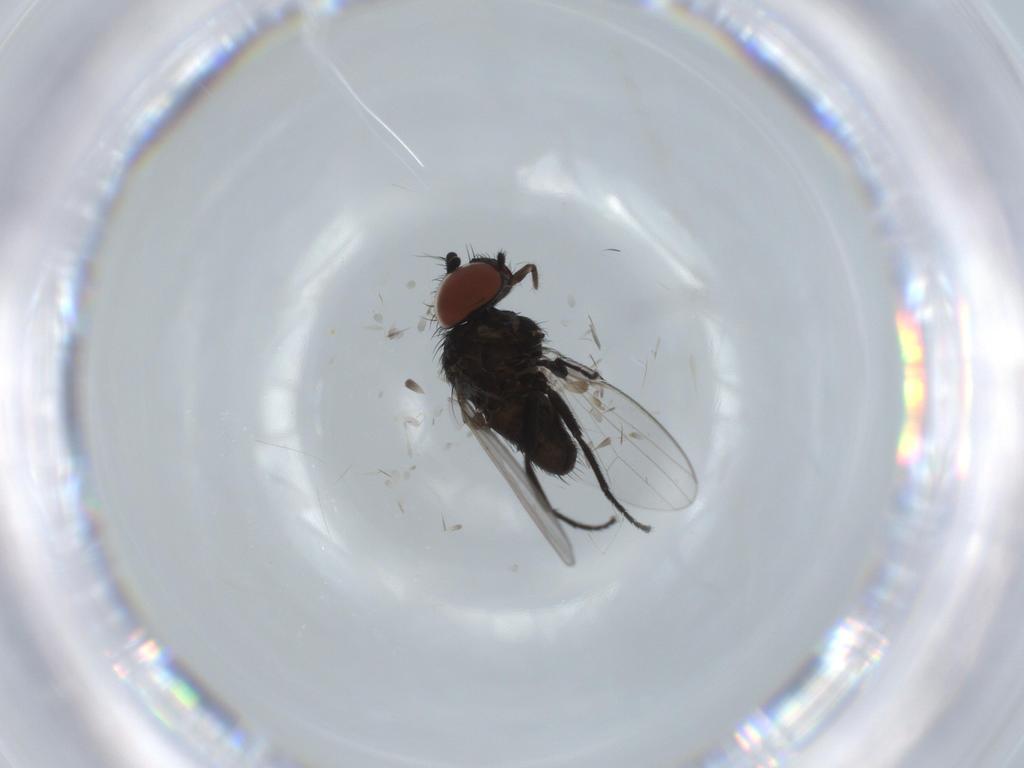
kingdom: Animalia
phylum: Arthropoda
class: Insecta
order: Diptera
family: Milichiidae
